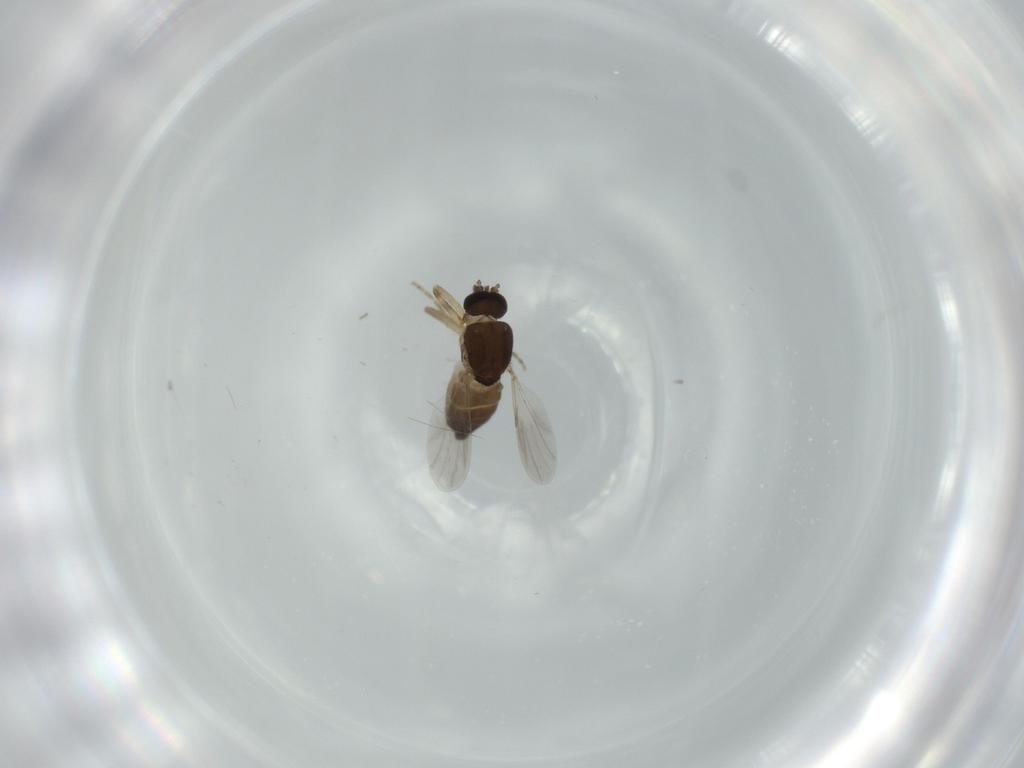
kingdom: Animalia
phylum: Arthropoda
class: Insecta
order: Diptera
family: Ceratopogonidae
